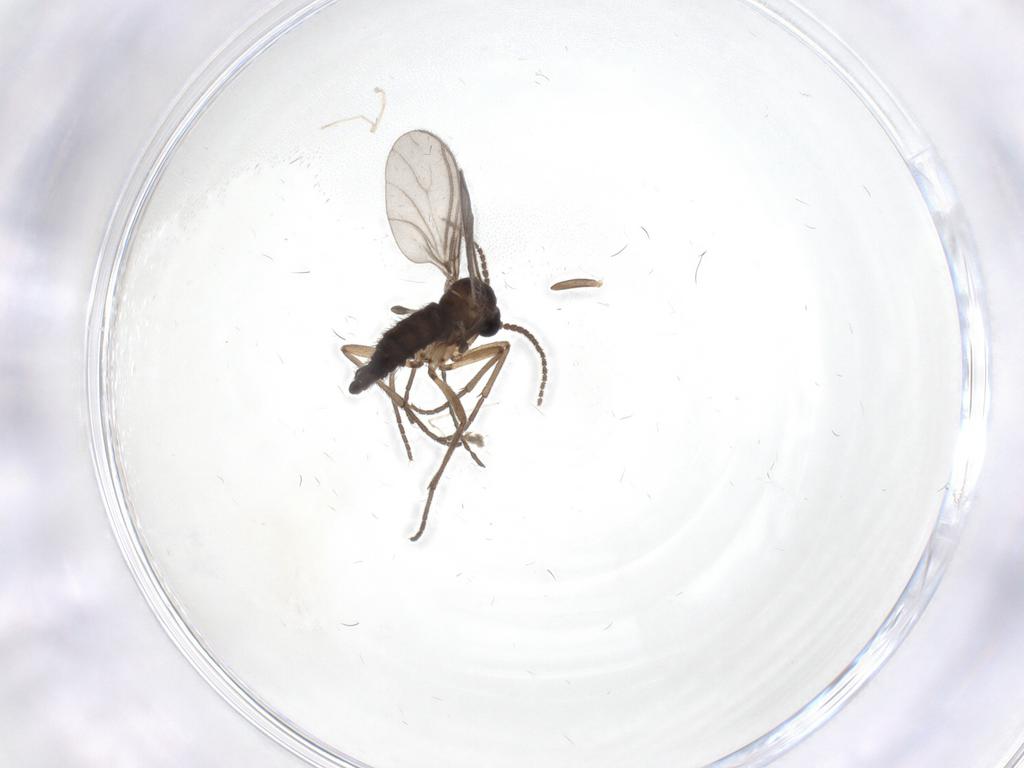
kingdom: Animalia
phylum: Arthropoda
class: Insecta
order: Diptera
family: Sciaridae
